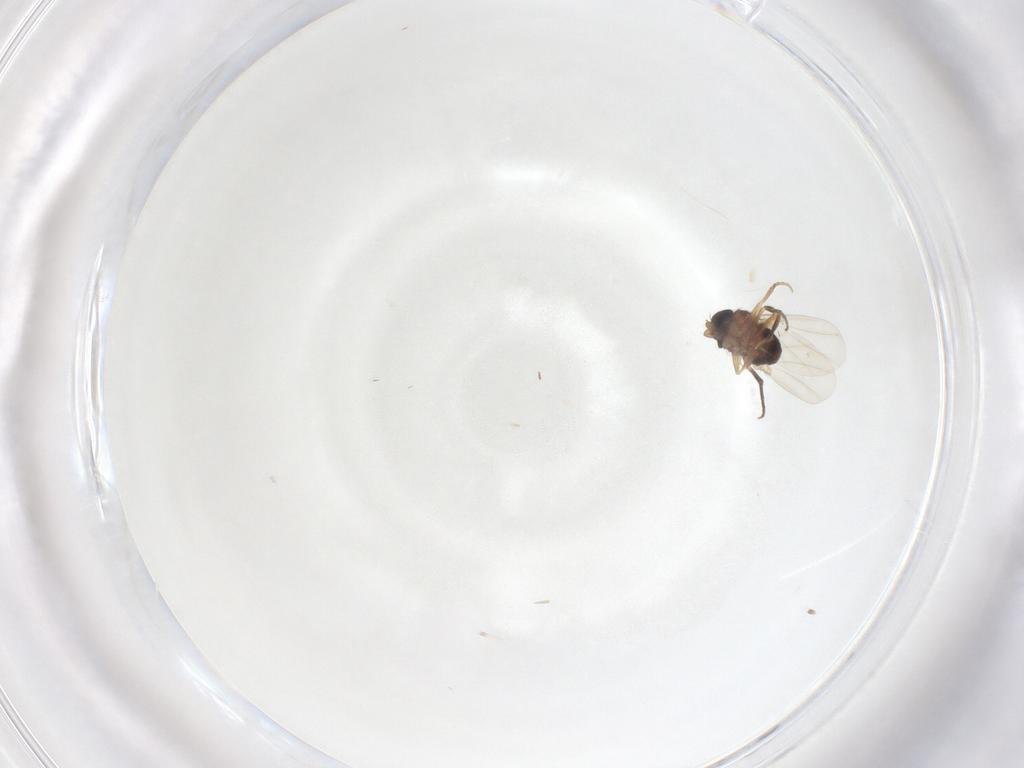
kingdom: Animalia
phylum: Arthropoda
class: Insecta
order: Diptera
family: Phoridae
